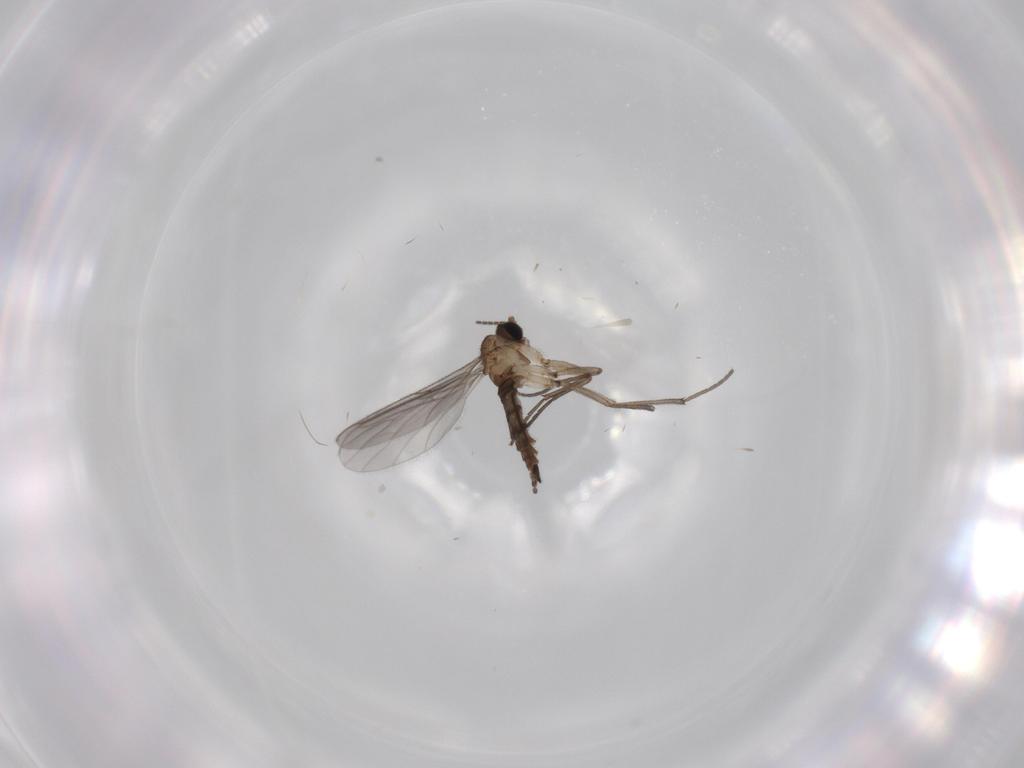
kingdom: Animalia
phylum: Arthropoda
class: Insecta
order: Diptera
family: Sciaridae
